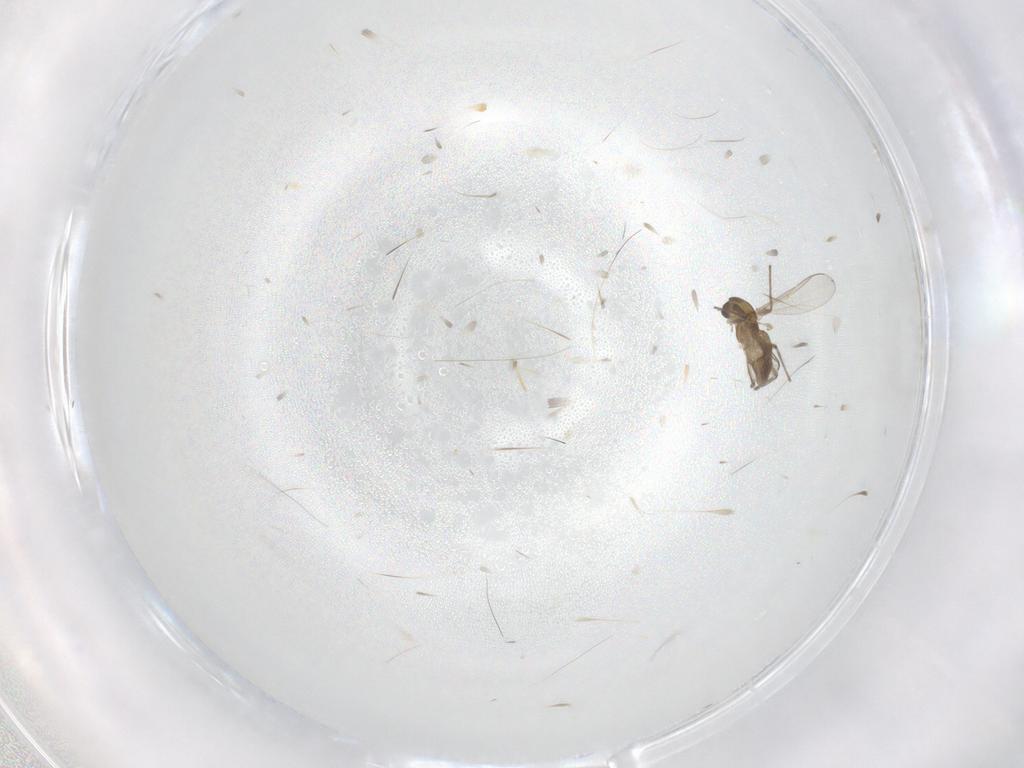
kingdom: Animalia
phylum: Arthropoda
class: Insecta
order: Diptera
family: Chironomidae
